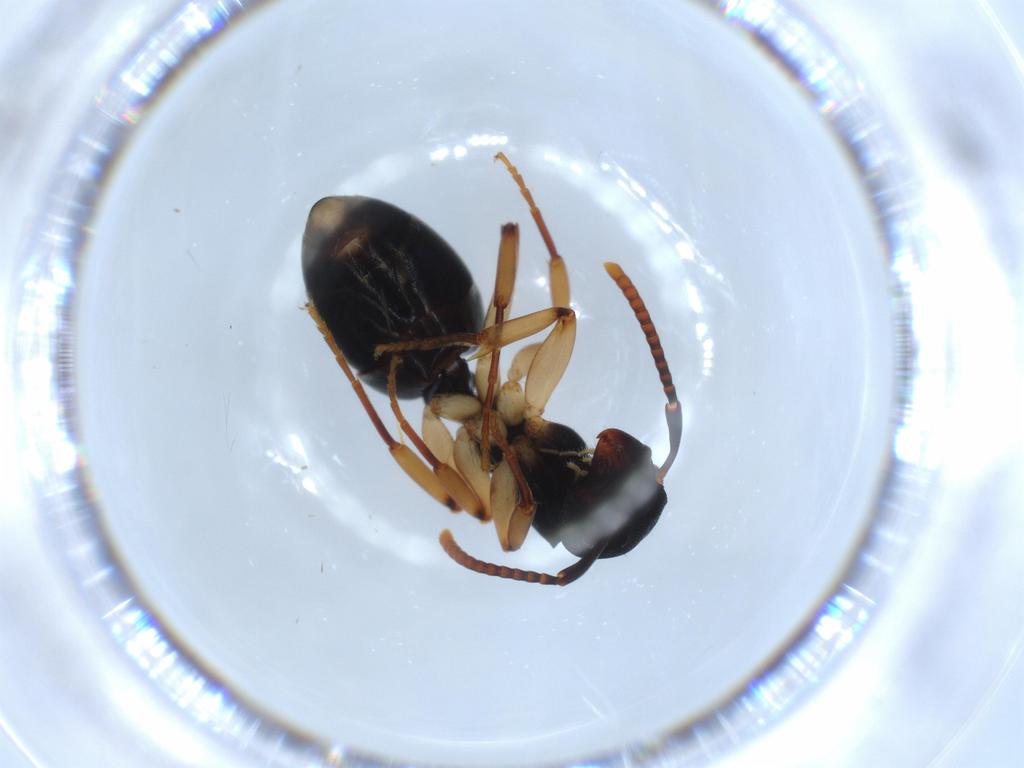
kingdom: Animalia
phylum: Arthropoda
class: Insecta
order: Hymenoptera
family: Formicidae
